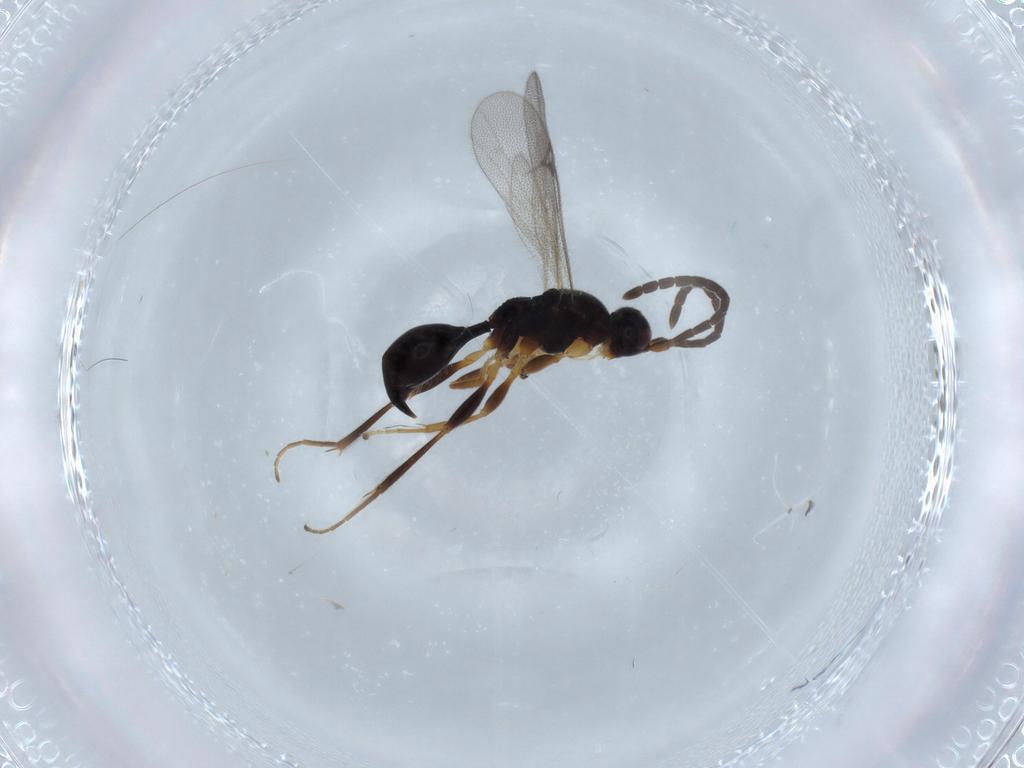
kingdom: Animalia
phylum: Arthropoda
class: Insecta
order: Hymenoptera
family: Proctotrupidae
